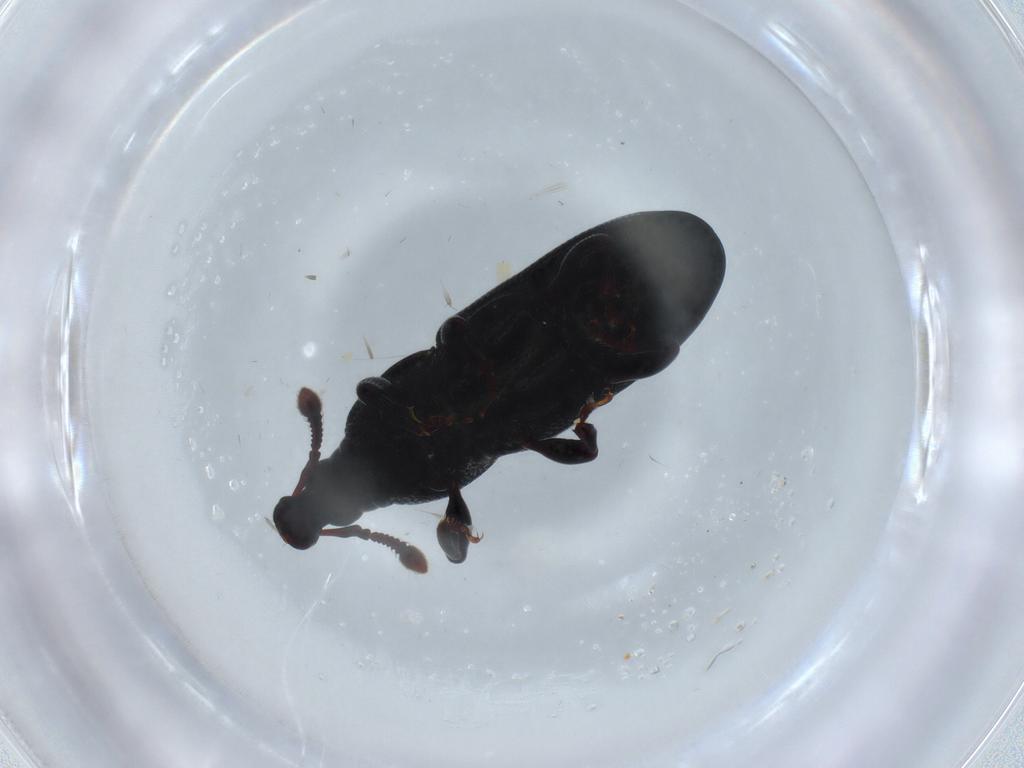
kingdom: Animalia
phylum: Arthropoda
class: Insecta
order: Coleoptera
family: Curculionidae
